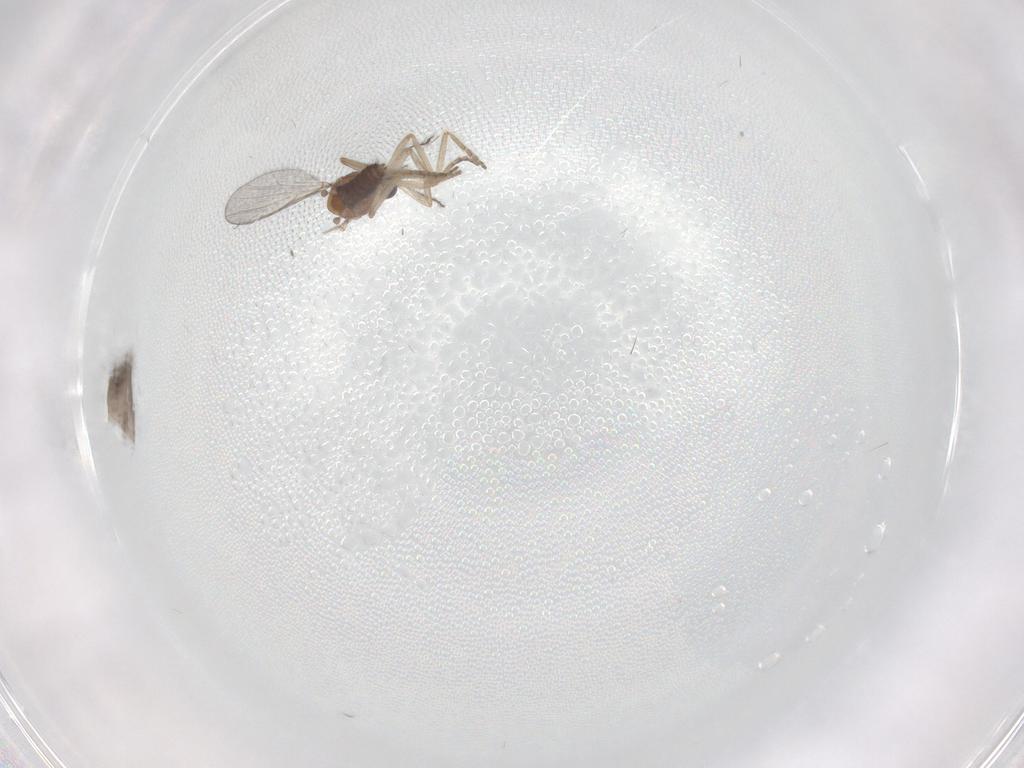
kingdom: Animalia
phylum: Arthropoda
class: Insecta
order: Diptera
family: Ceratopogonidae
